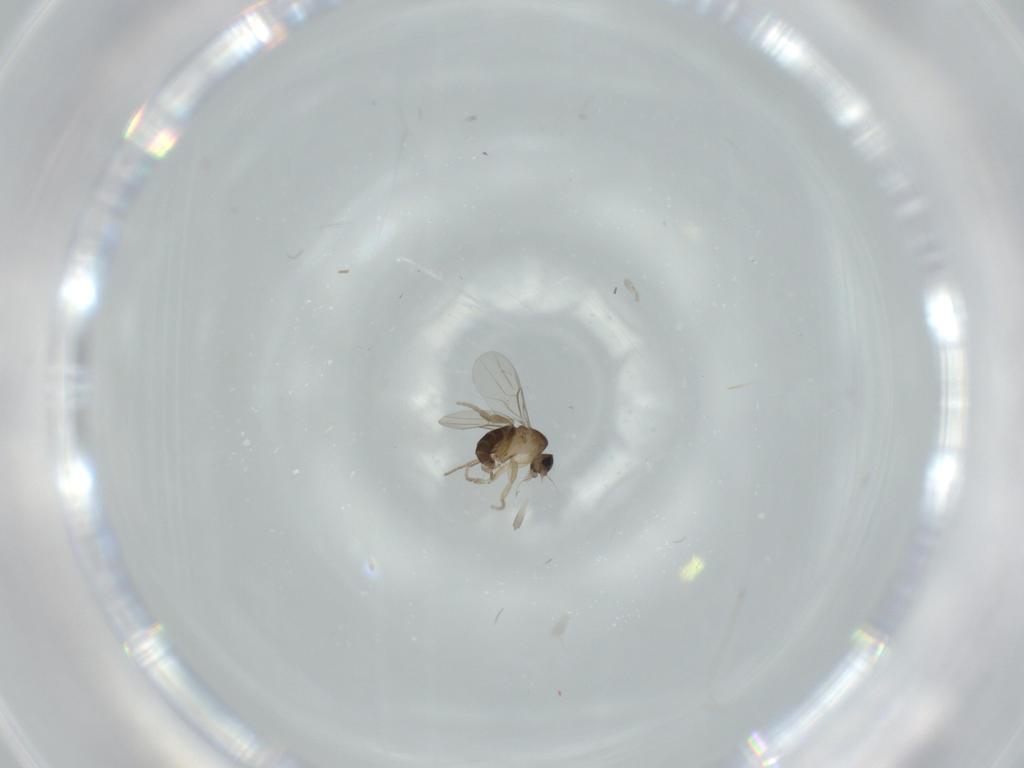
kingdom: Animalia
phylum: Arthropoda
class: Insecta
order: Diptera
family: Phoridae
